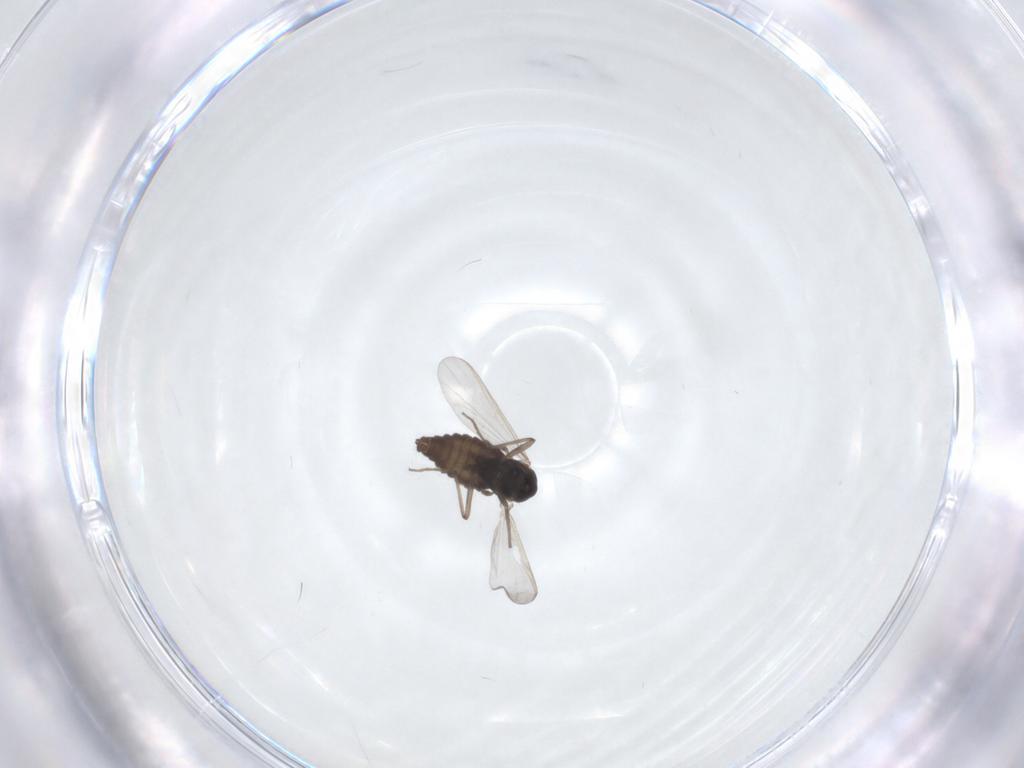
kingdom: Animalia
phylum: Arthropoda
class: Insecta
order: Diptera
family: Chironomidae
